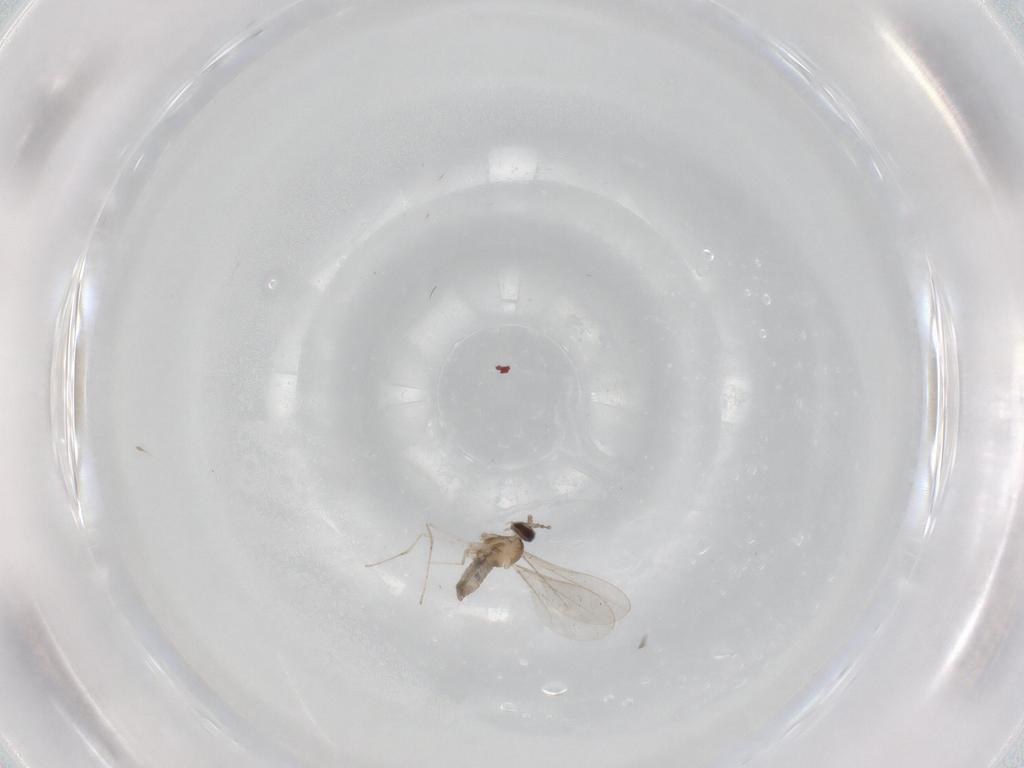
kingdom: Animalia
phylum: Arthropoda
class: Insecta
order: Diptera
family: Cecidomyiidae
